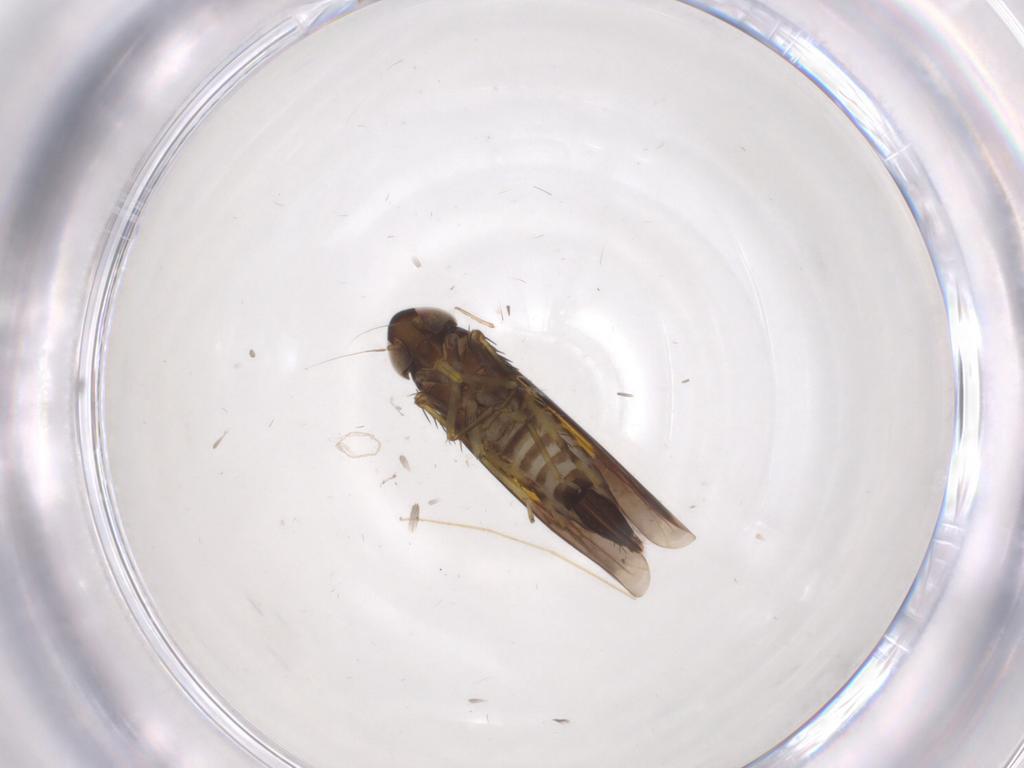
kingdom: Animalia
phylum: Arthropoda
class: Insecta
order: Hemiptera
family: Cicadellidae
